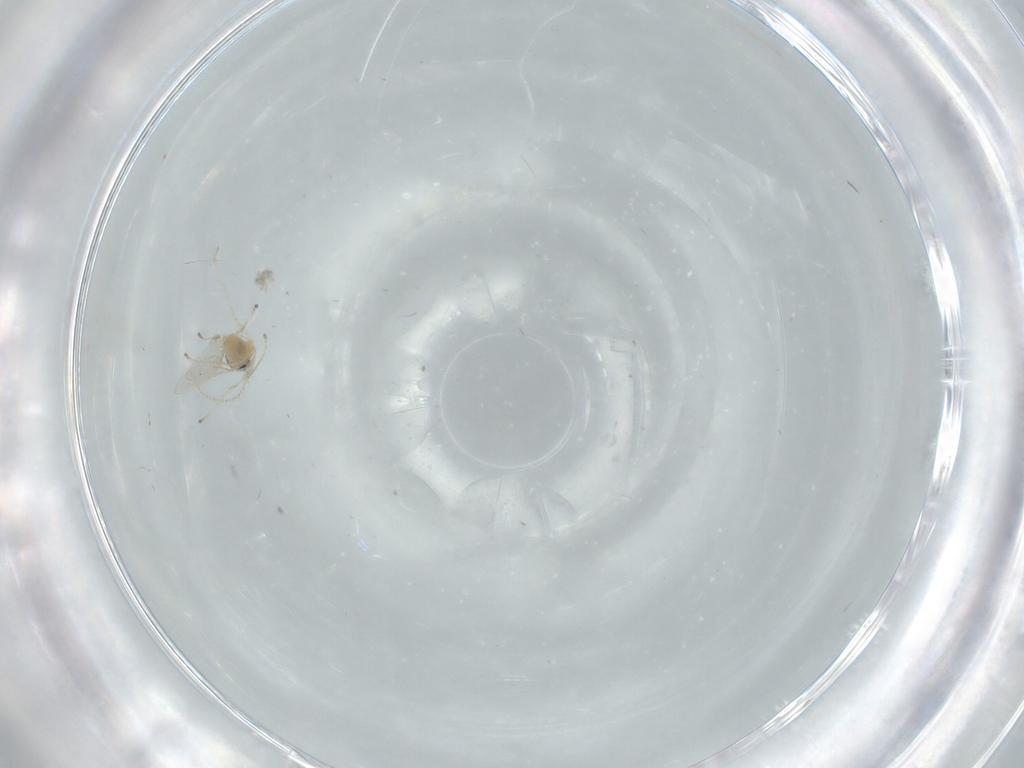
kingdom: Animalia
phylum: Arthropoda
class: Insecta
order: Diptera
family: Cecidomyiidae
